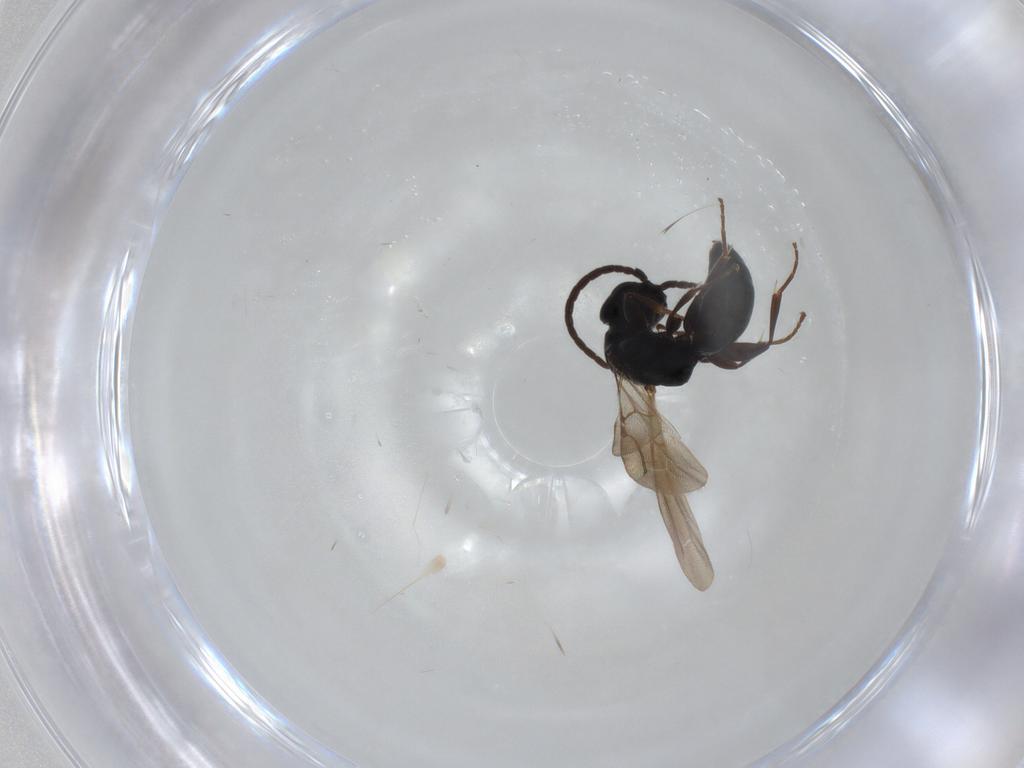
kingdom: Animalia
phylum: Arthropoda
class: Insecta
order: Hymenoptera
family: Bethylidae
